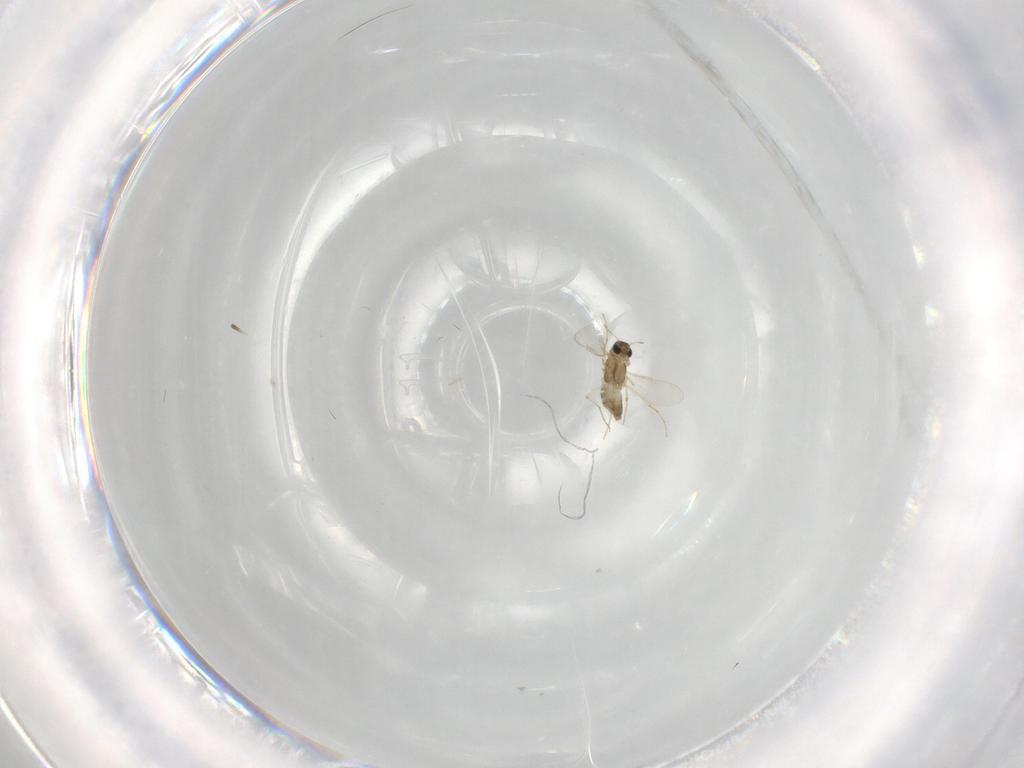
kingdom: Animalia
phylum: Arthropoda
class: Insecta
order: Diptera
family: Chironomidae
